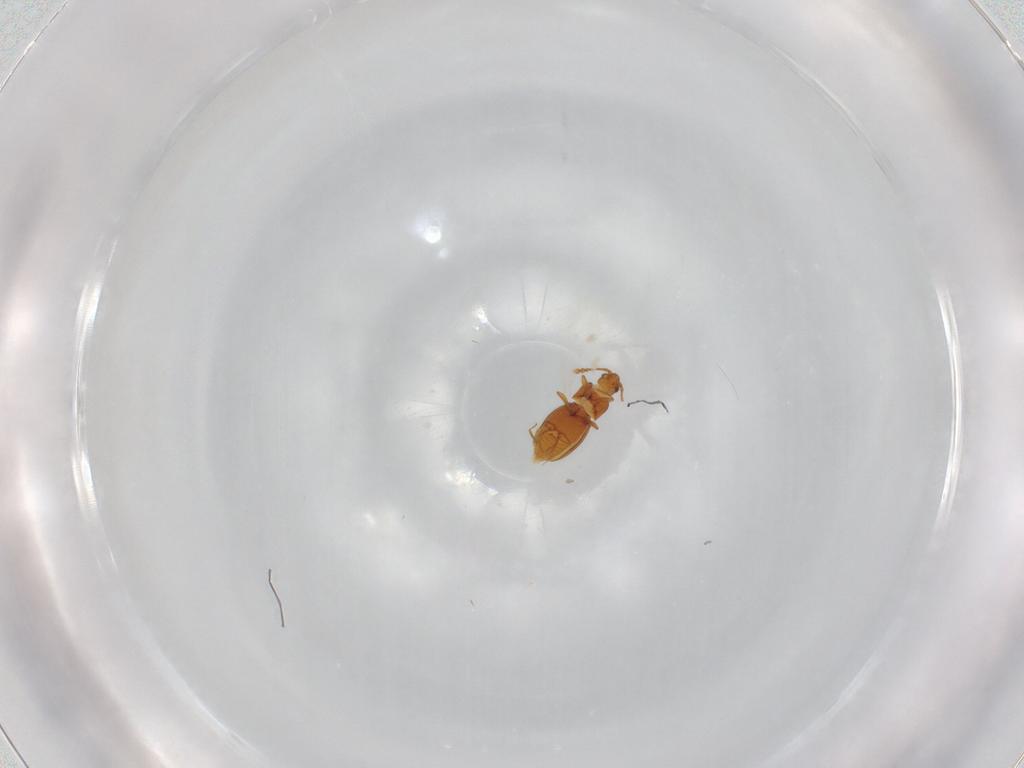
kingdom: Animalia
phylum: Arthropoda
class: Insecta
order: Coleoptera
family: Staphylinidae
